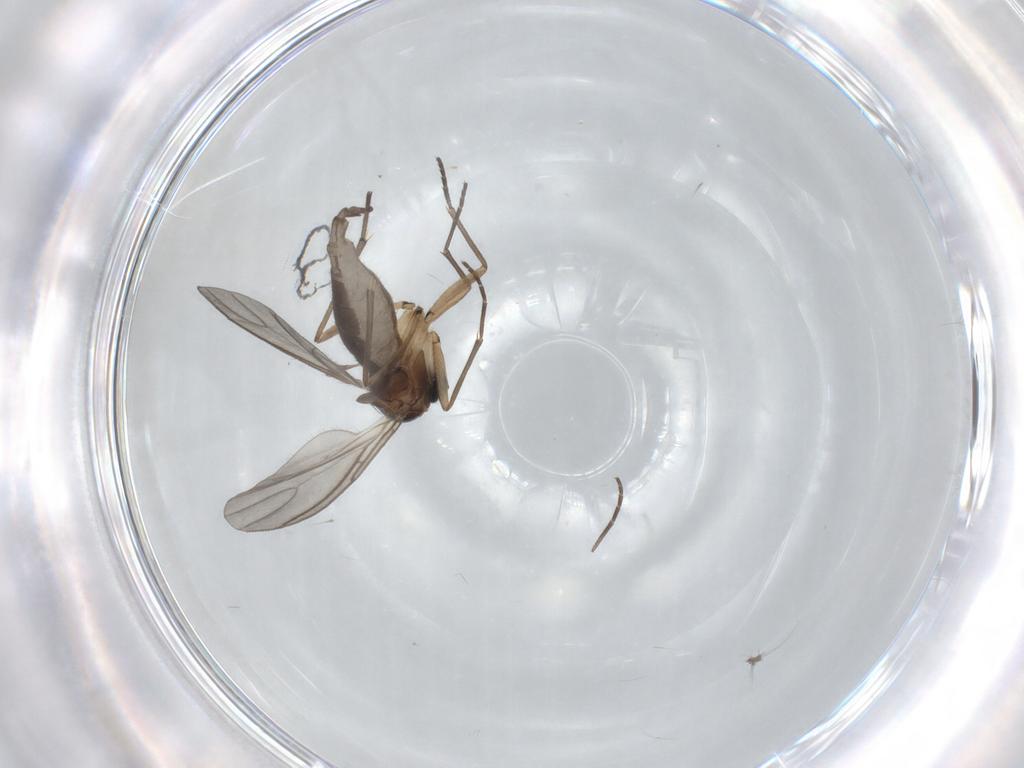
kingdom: Animalia
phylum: Arthropoda
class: Insecta
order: Diptera
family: Sciaridae
